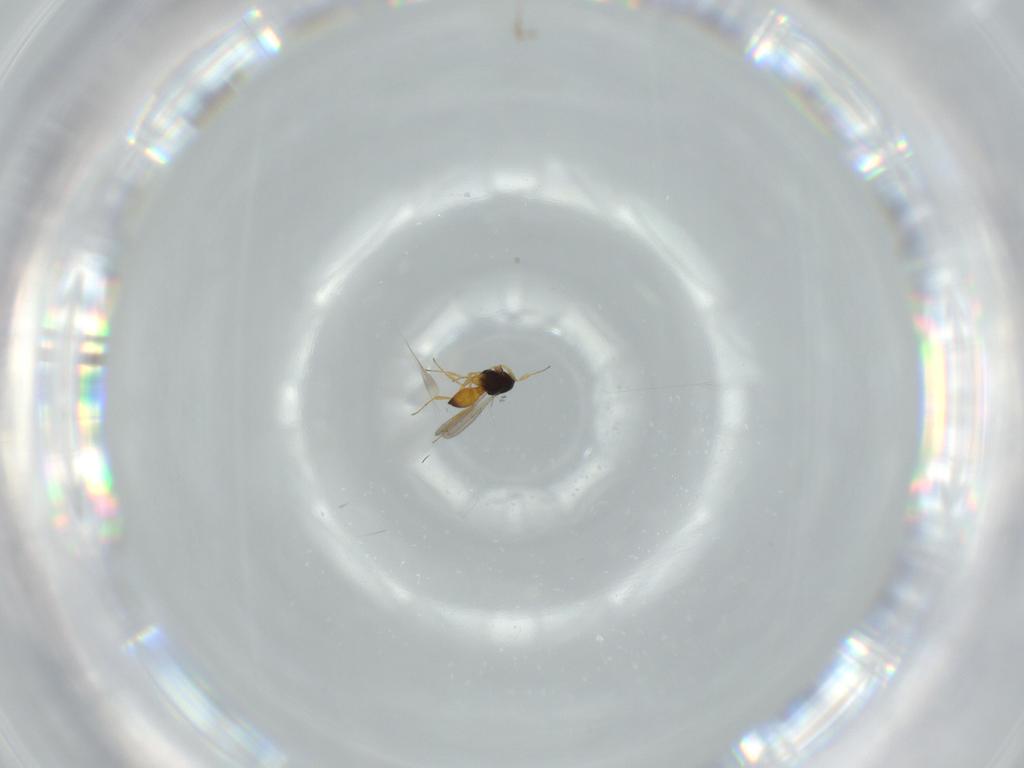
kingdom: Animalia
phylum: Arthropoda
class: Insecta
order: Hymenoptera
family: Scelionidae
